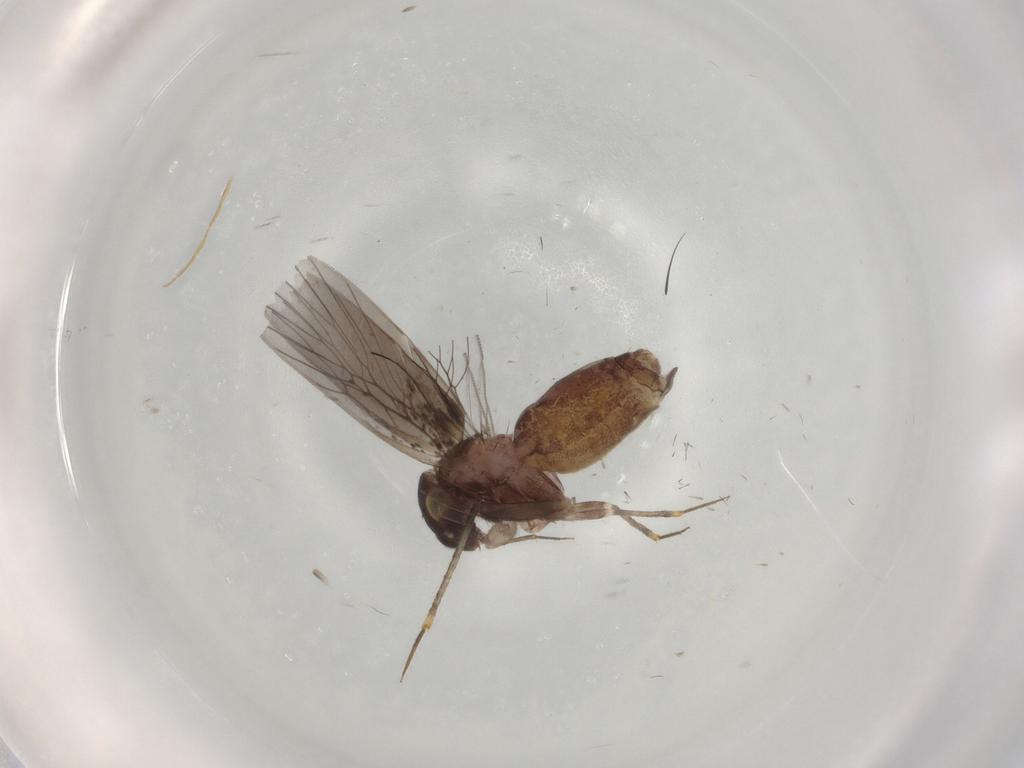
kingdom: Animalia
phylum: Arthropoda
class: Insecta
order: Psocodea
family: Lepidopsocidae
